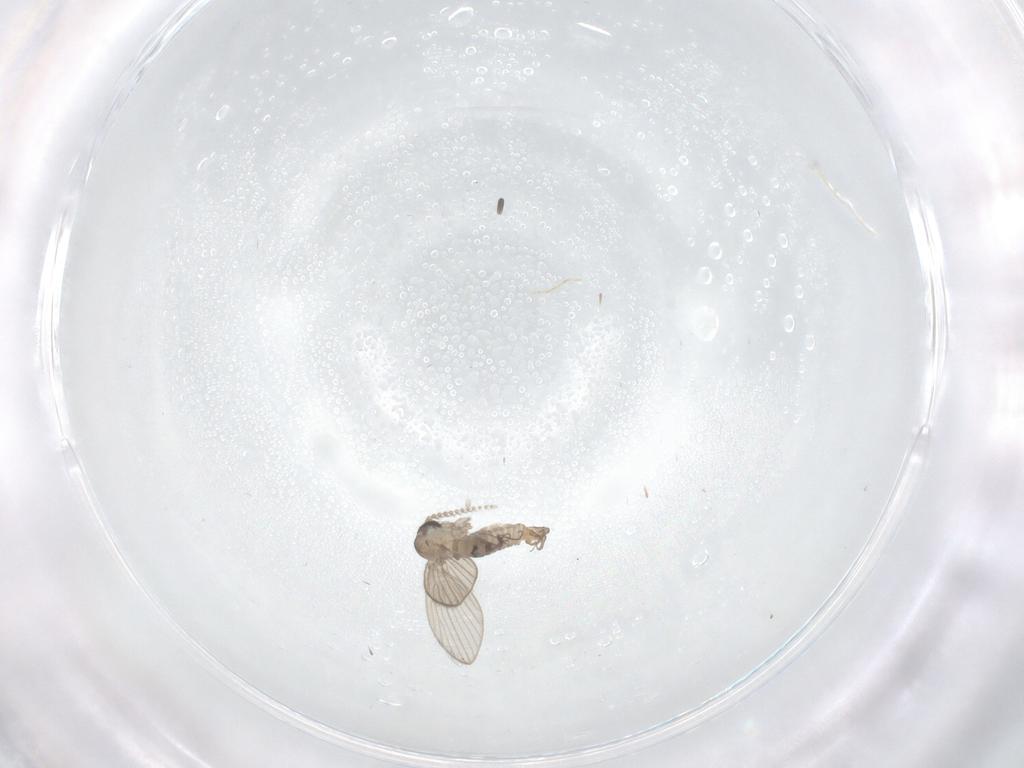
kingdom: Animalia
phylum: Arthropoda
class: Insecta
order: Diptera
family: Psychodidae
